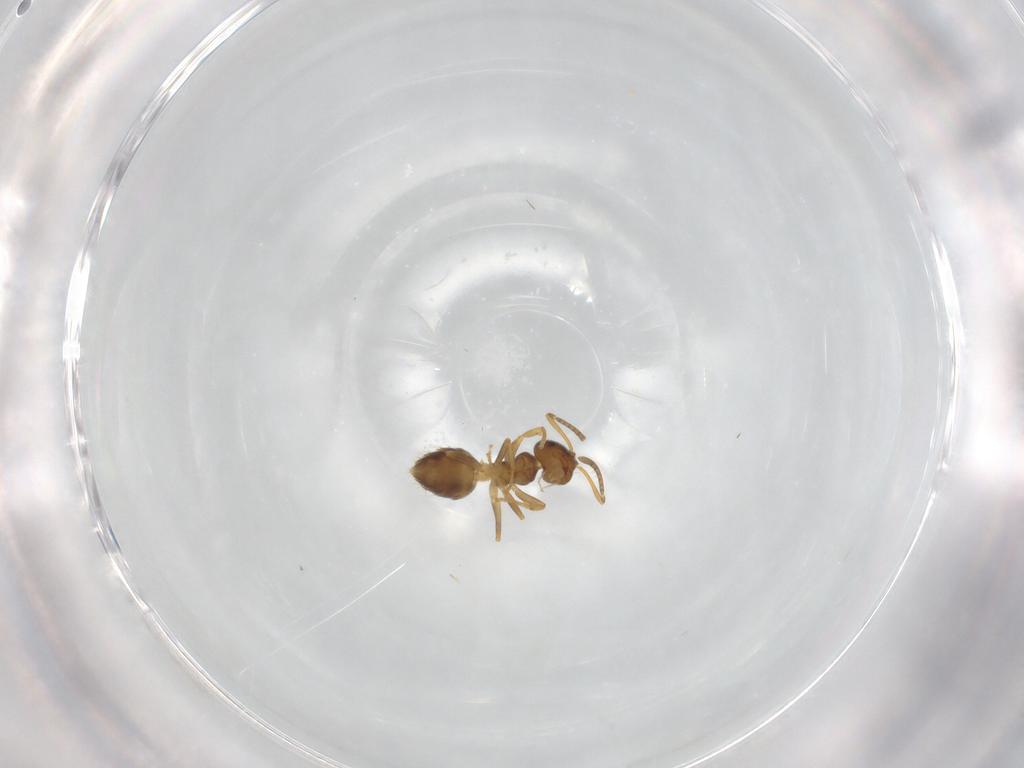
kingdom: Animalia
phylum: Arthropoda
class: Insecta
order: Hymenoptera
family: Formicidae
